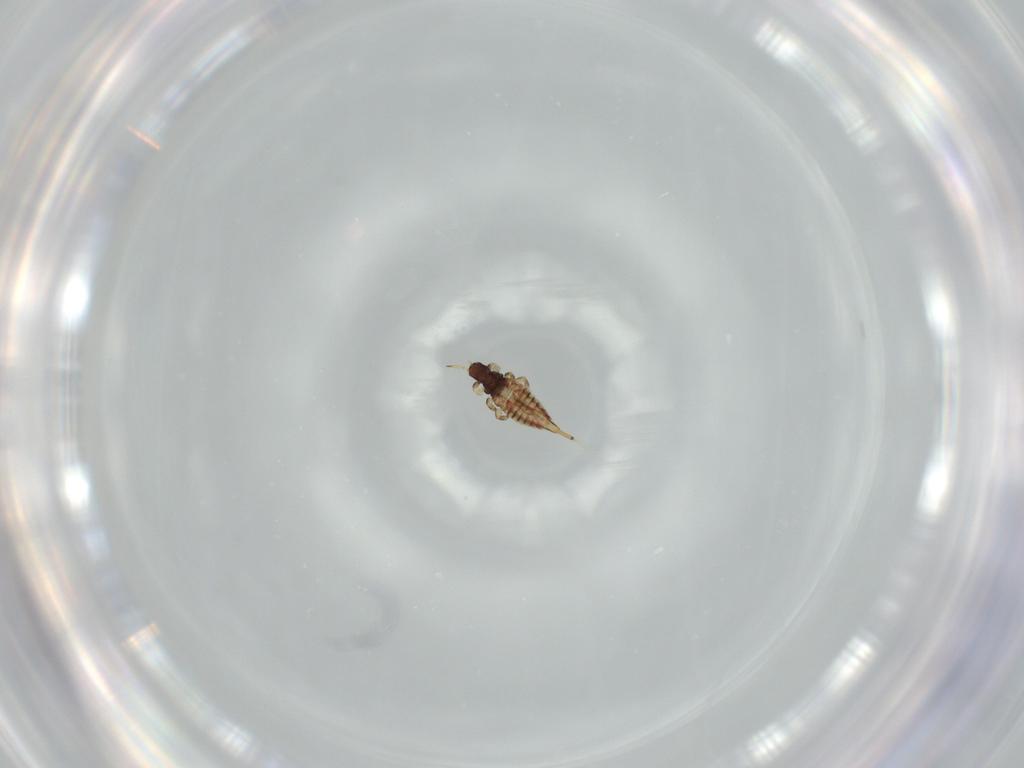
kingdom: Animalia
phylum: Arthropoda
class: Insecta
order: Thysanoptera
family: Phlaeothripidae
